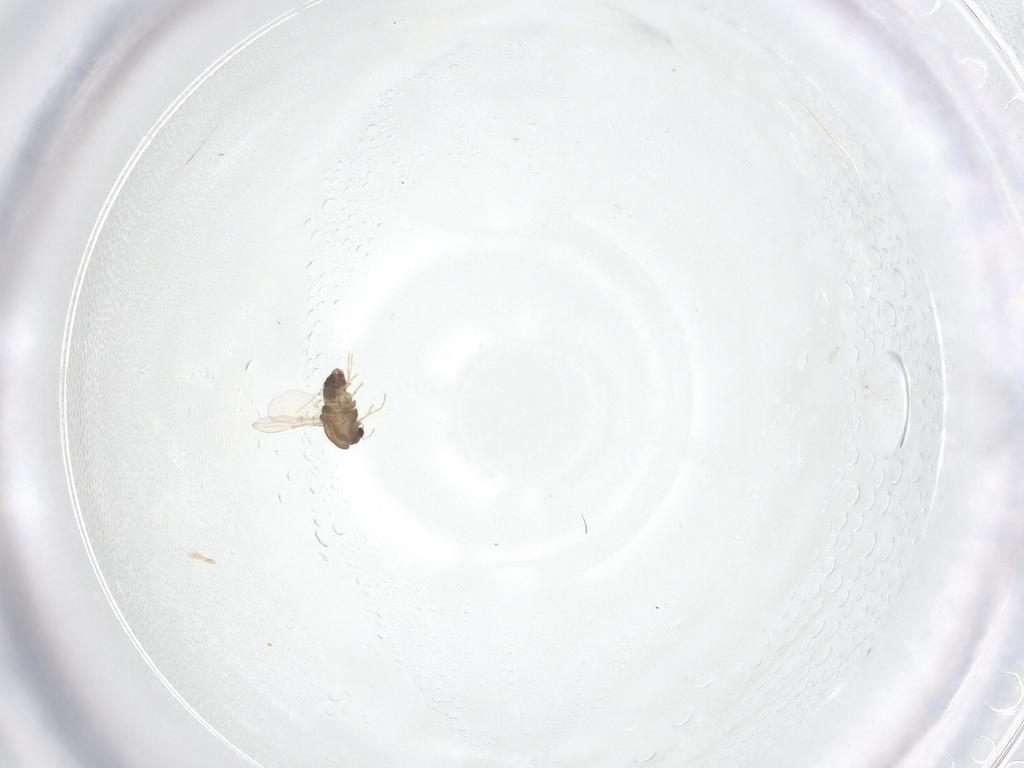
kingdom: Animalia
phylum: Arthropoda
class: Insecta
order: Diptera
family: Chironomidae
